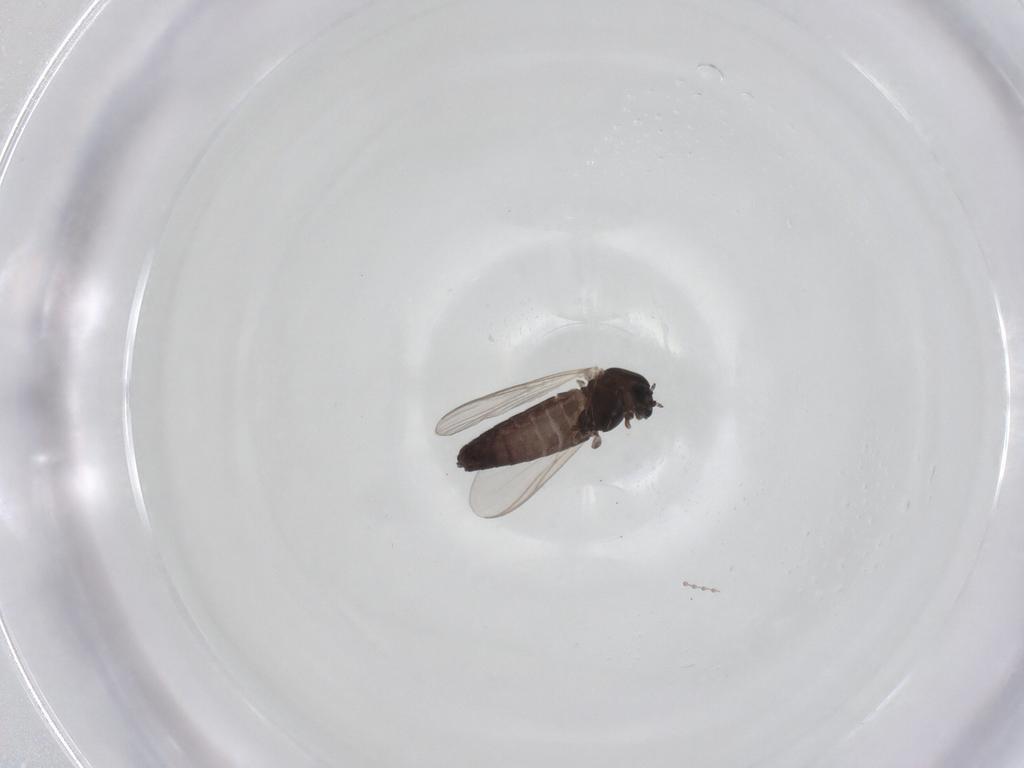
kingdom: Animalia
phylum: Arthropoda
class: Insecta
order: Diptera
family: Chironomidae
